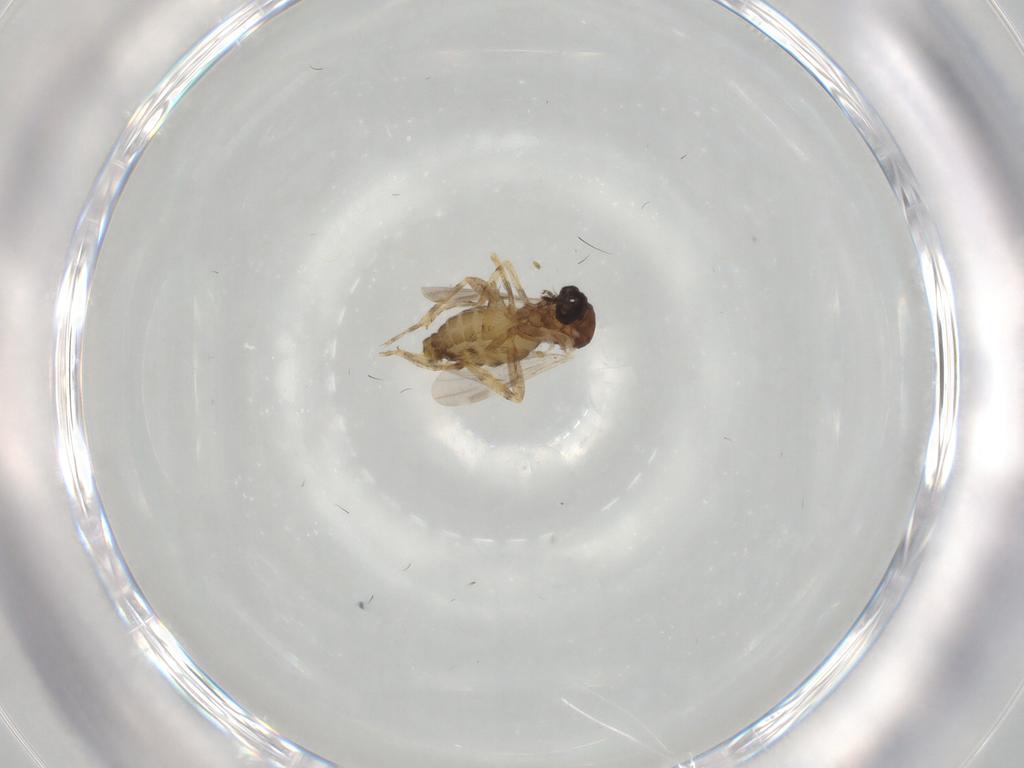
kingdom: Animalia
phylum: Arthropoda
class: Insecta
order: Diptera
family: Ceratopogonidae
